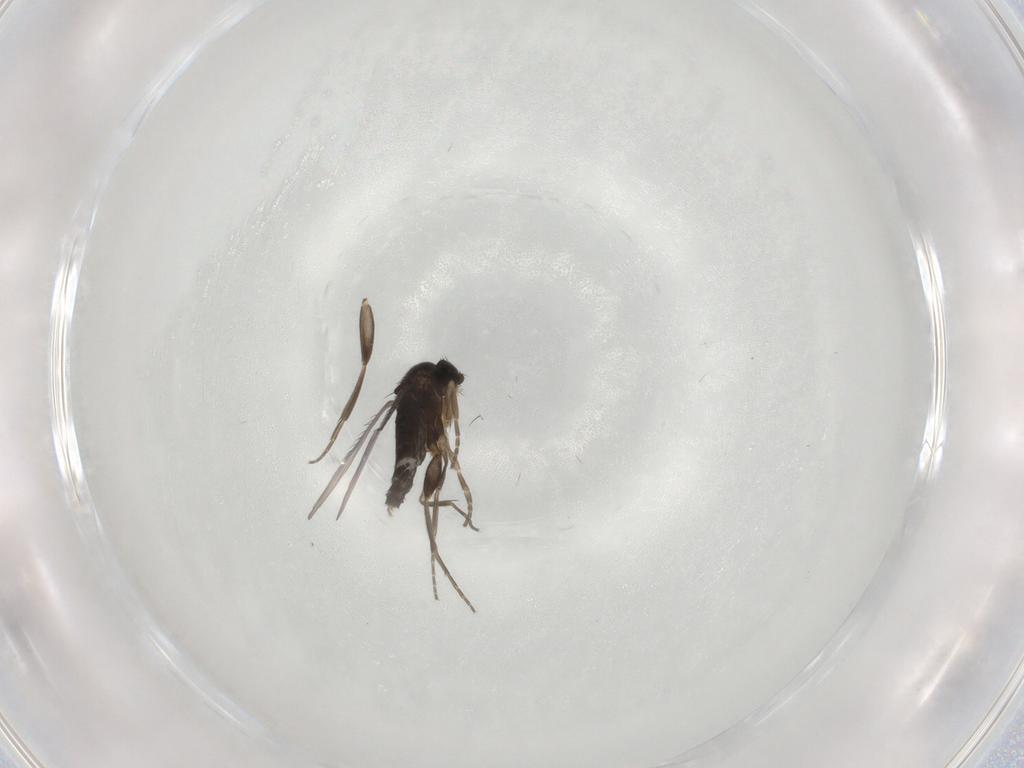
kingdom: Animalia
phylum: Arthropoda
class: Insecta
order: Diptera
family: Phoridae
